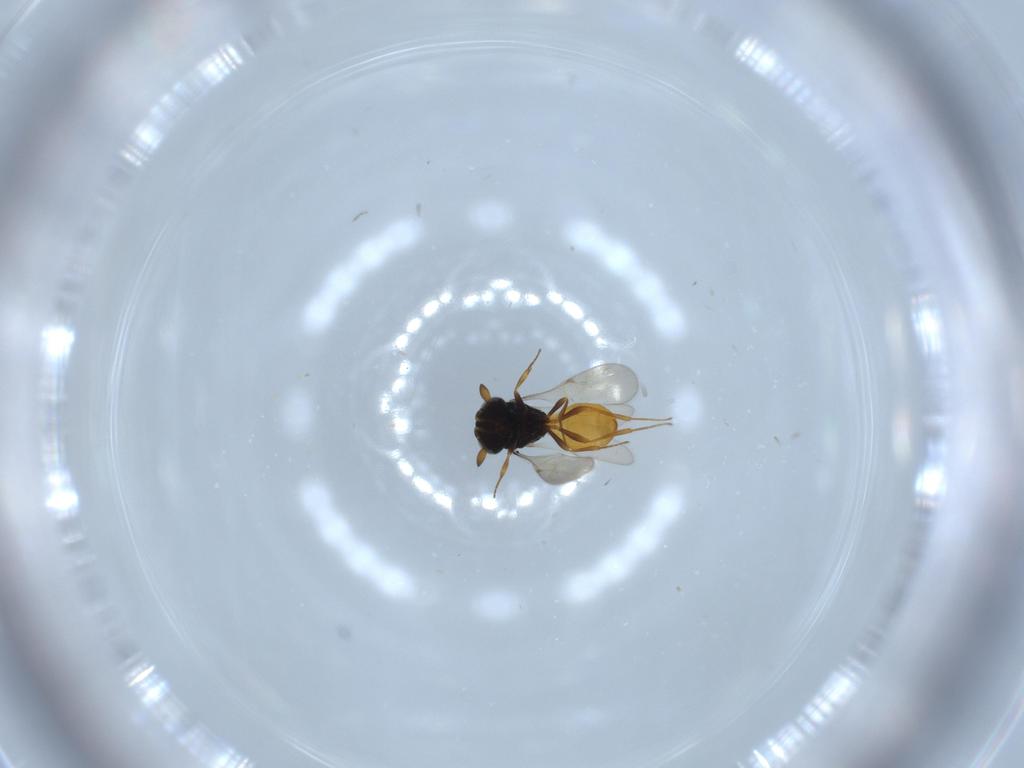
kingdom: Animalia
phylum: Arthropoda
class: Insecta
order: Hymenoptera
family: Scelionidae
